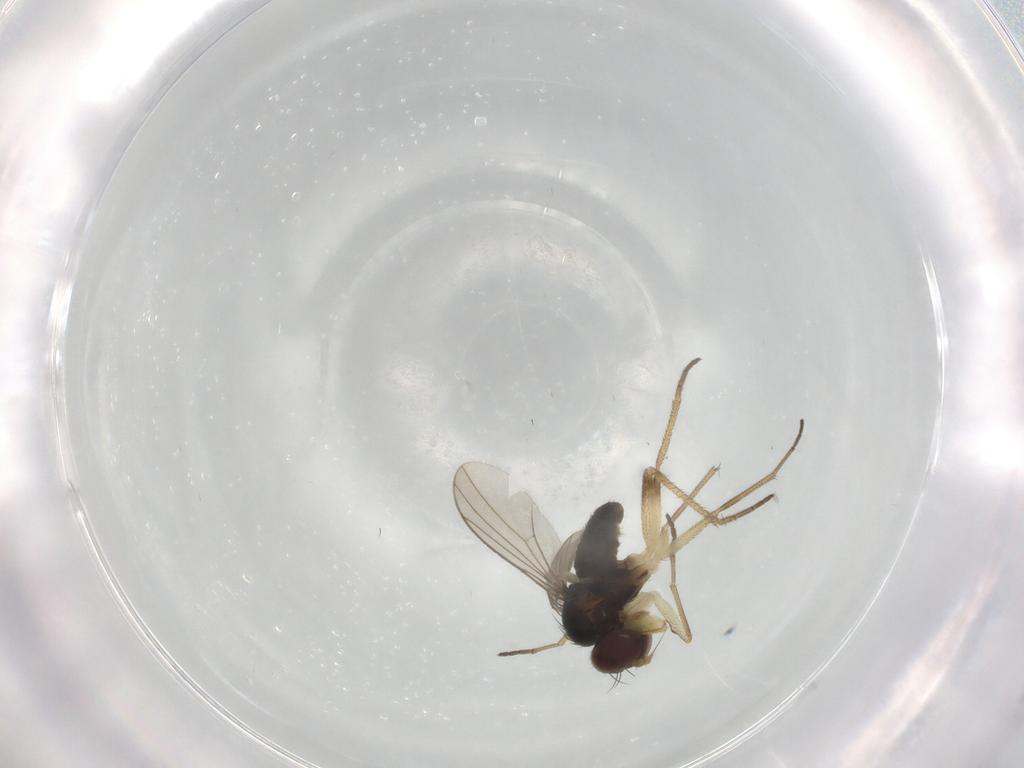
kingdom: Animalia
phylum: Arthropoda
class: Insecta
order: Diptera
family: Dolichopodidae
